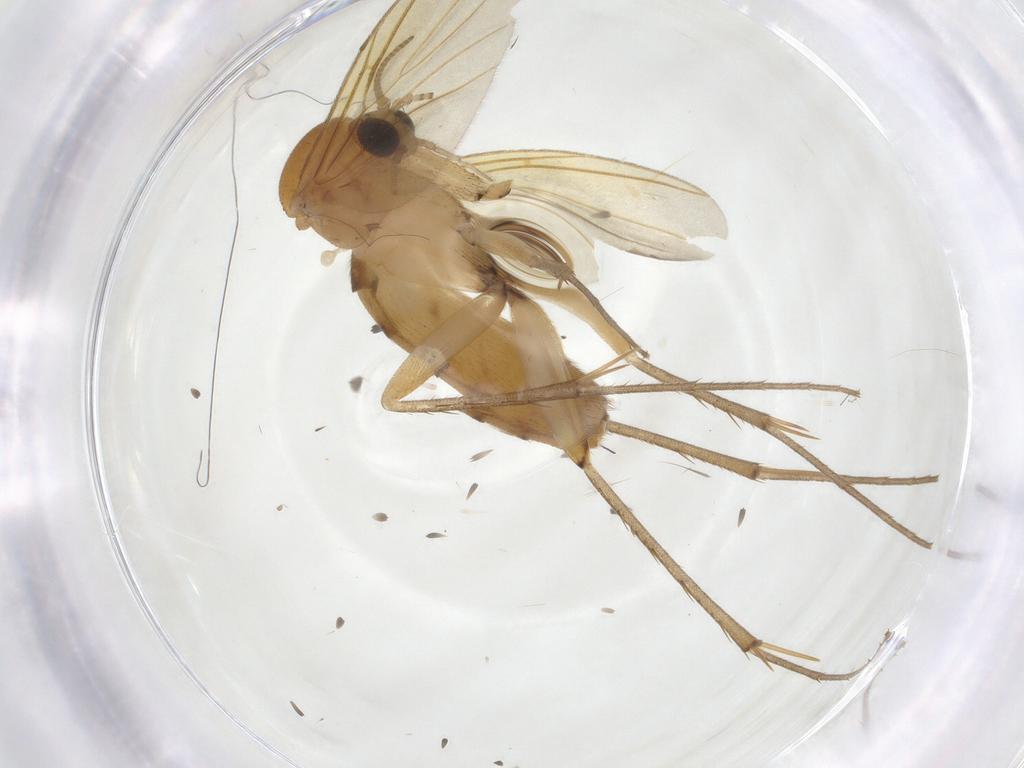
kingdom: Animalia
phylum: Arthropoda
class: Insecta
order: Diptera
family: Mycetophilidae
